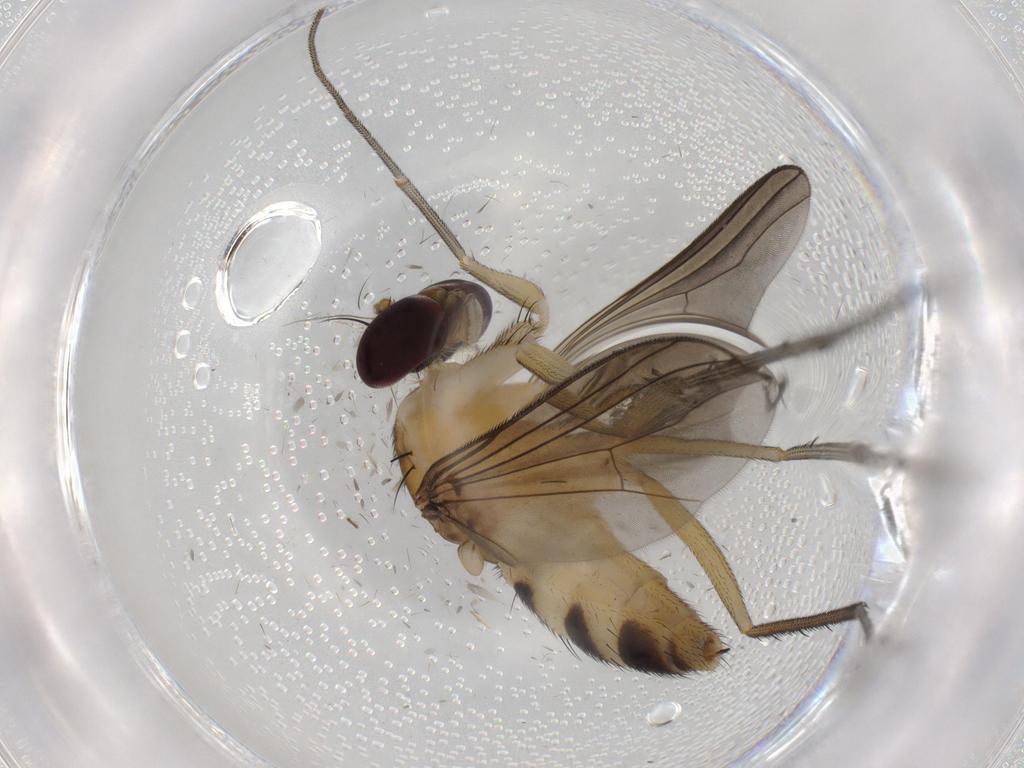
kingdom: Animalia
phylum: Arthropoda
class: Insecta
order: Diptera
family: Dolichopodidae
